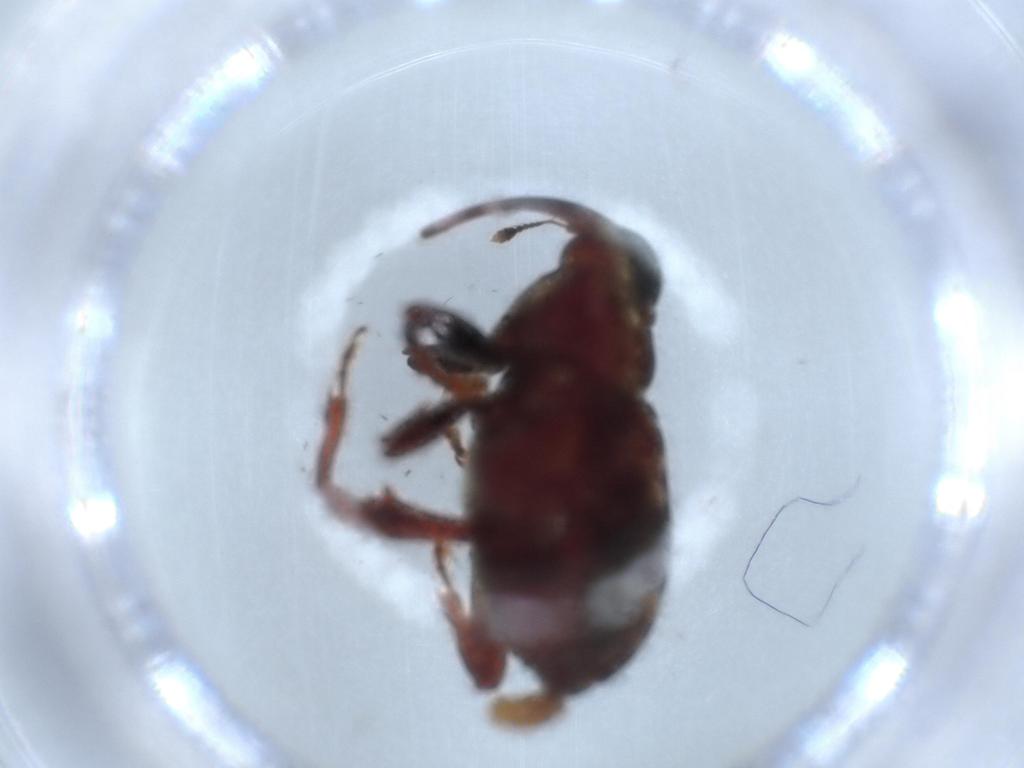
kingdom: Animalia
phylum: Arthropoda
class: Insecta
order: Coleoptera
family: Curculionidae
